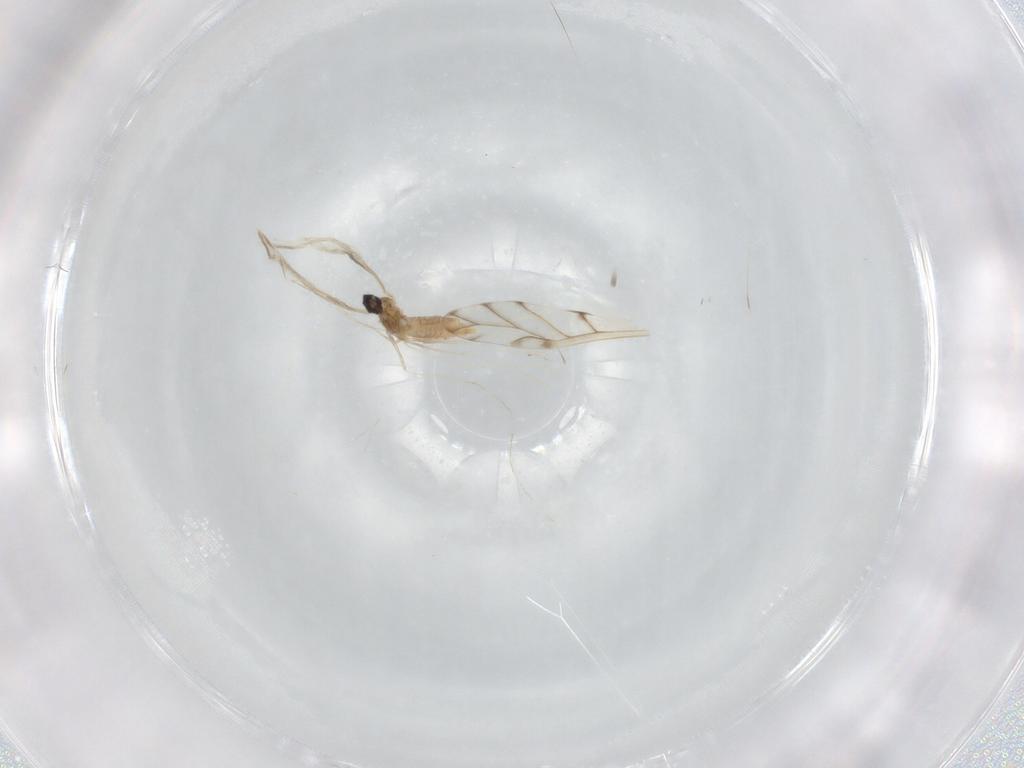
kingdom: Animalia
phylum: Arthropoda
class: Insecta
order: Diptera
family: Cecidomyiidae
